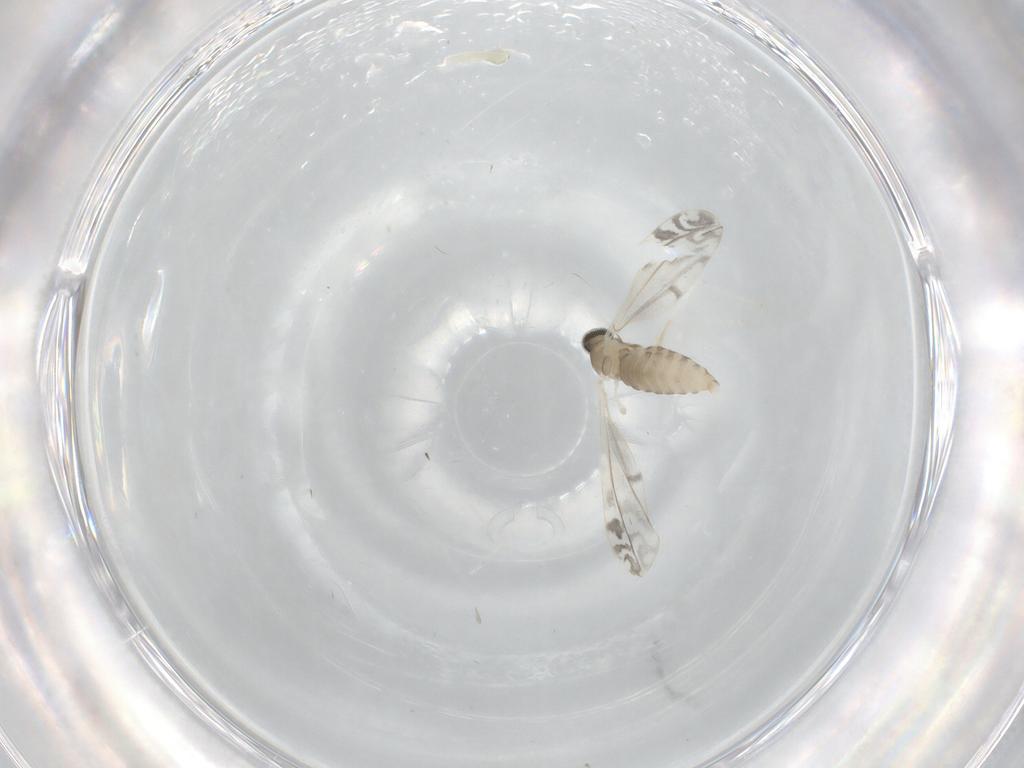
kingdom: Animalia
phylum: Arthropoda
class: Insecta
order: Diptera
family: Cecidomyiidae
